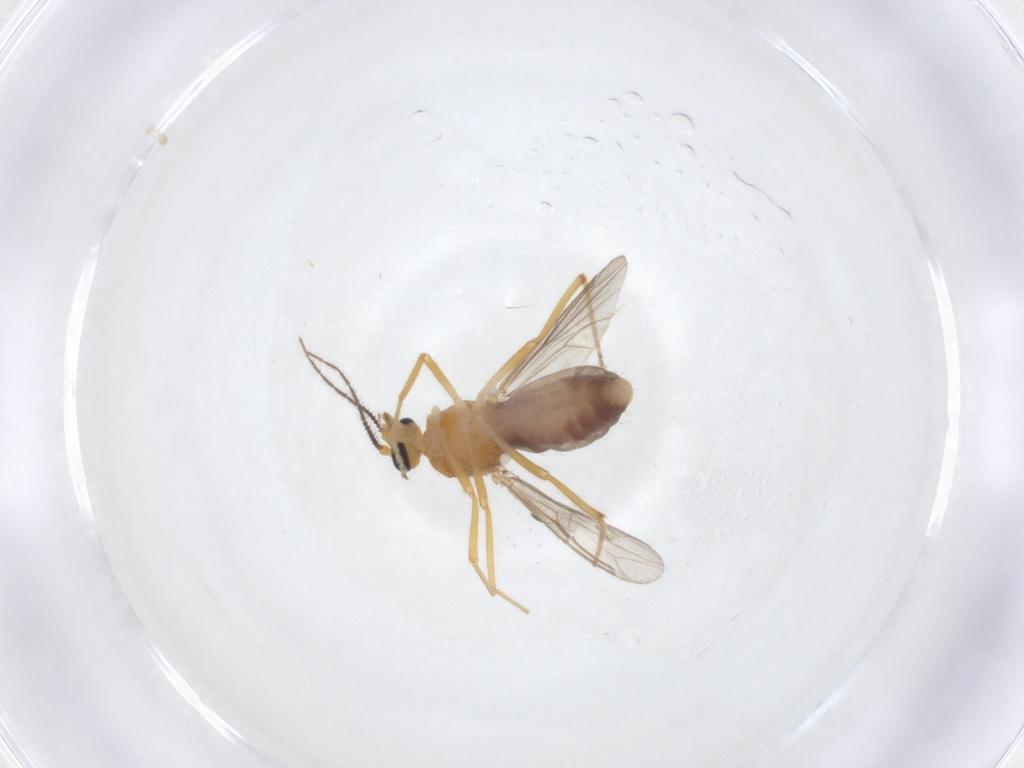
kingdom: Animalia
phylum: Arthropoda
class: Insecta
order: Diptera
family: Ceratopogonidae
